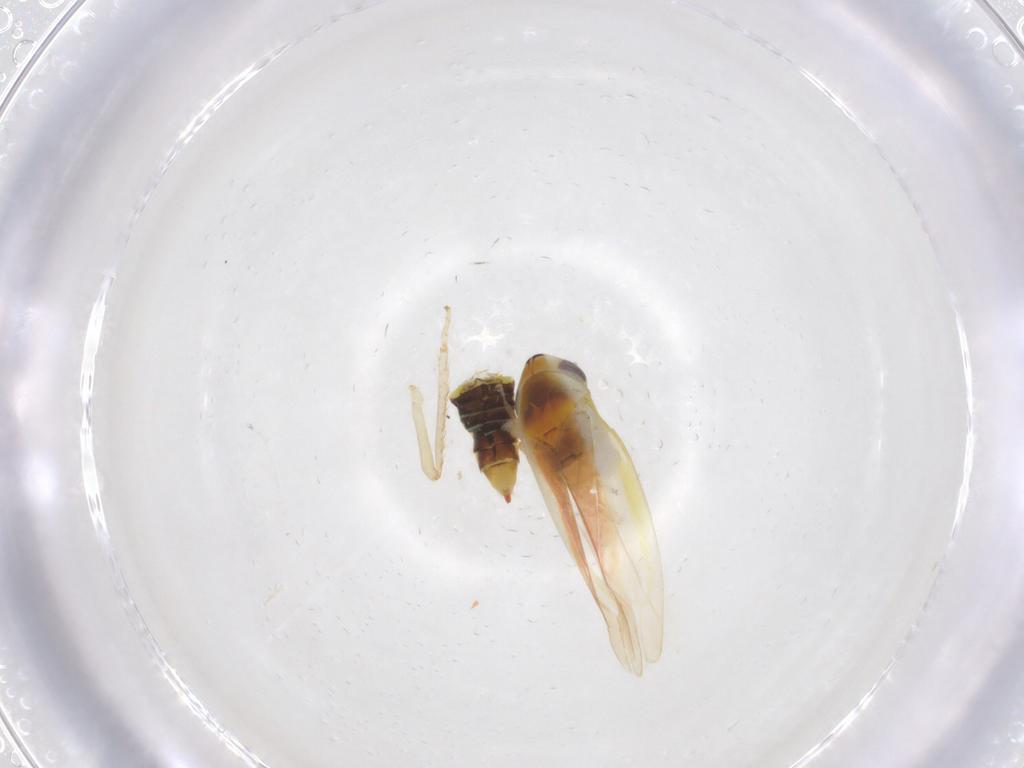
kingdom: Animalia
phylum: Arthropoda
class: Insecta
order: Hemiptera
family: Cicadellidae
